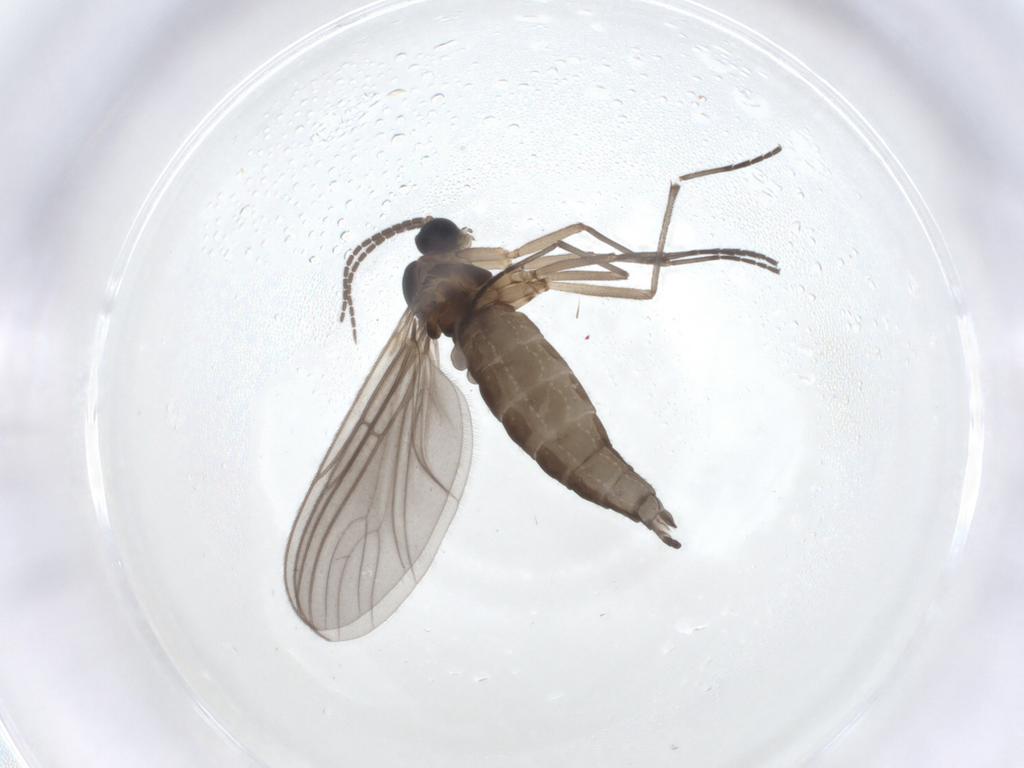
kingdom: Animalia
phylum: Arthropoda
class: Insecta
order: Diptera
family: Sciaridae
